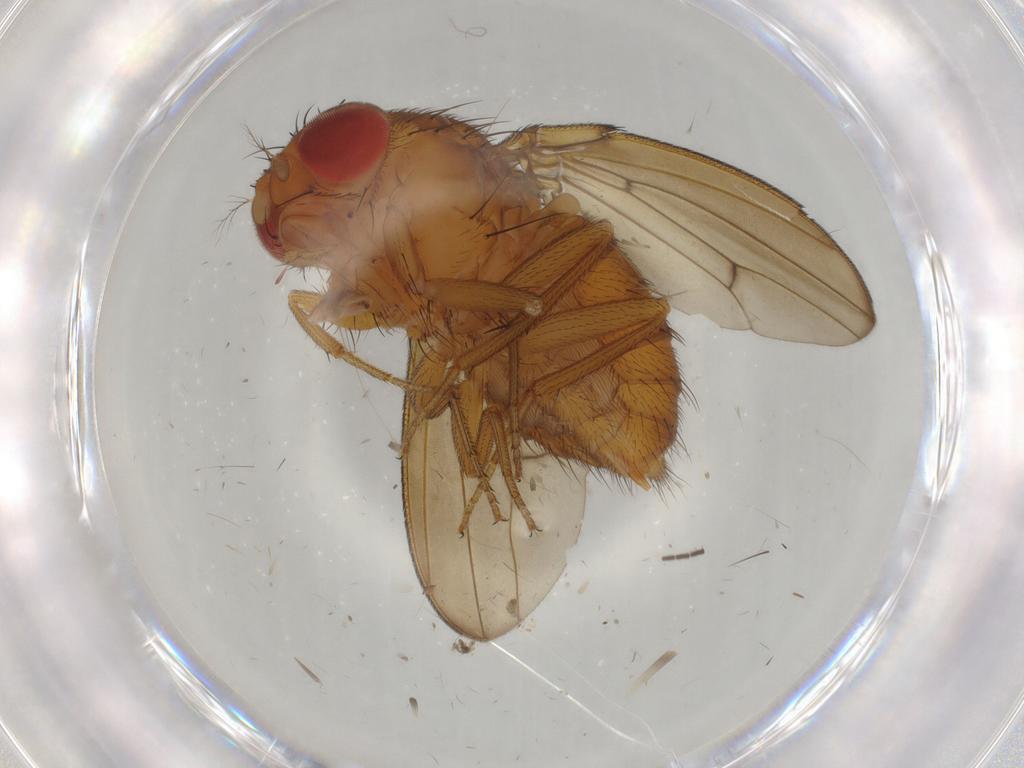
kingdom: Animalia
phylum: Arthropoda
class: Insecta
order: Diptera
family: Drosophilidae
